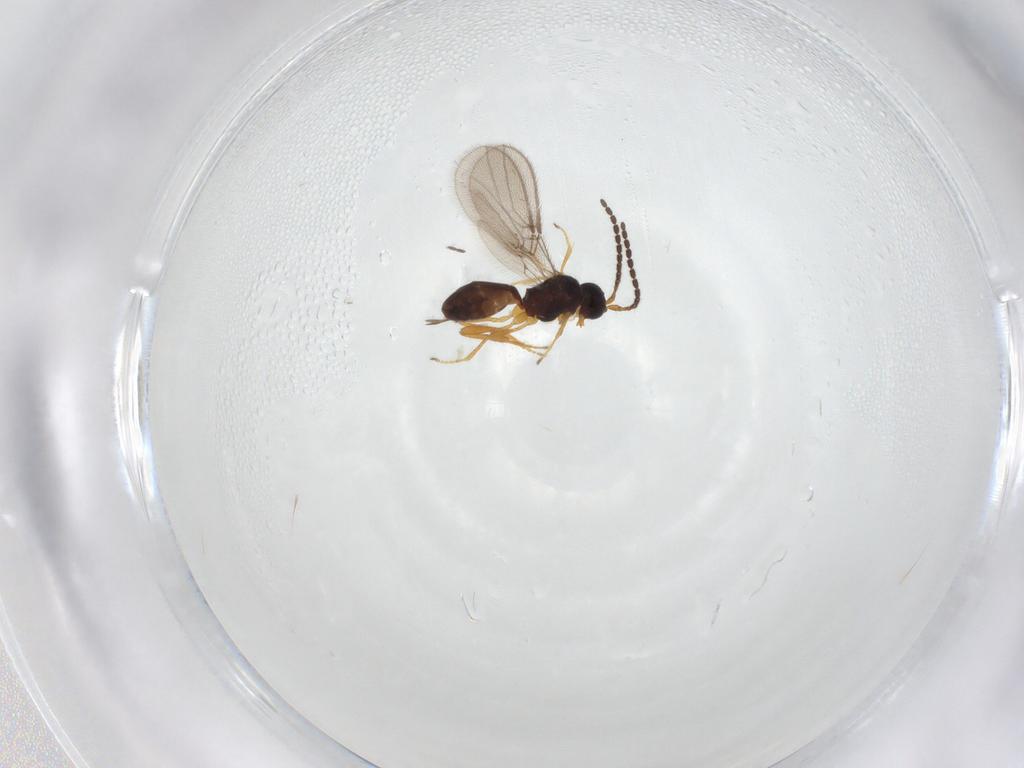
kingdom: Animalia
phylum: Arthropoda
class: Insecta
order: Hymenoptera
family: Braconidae
